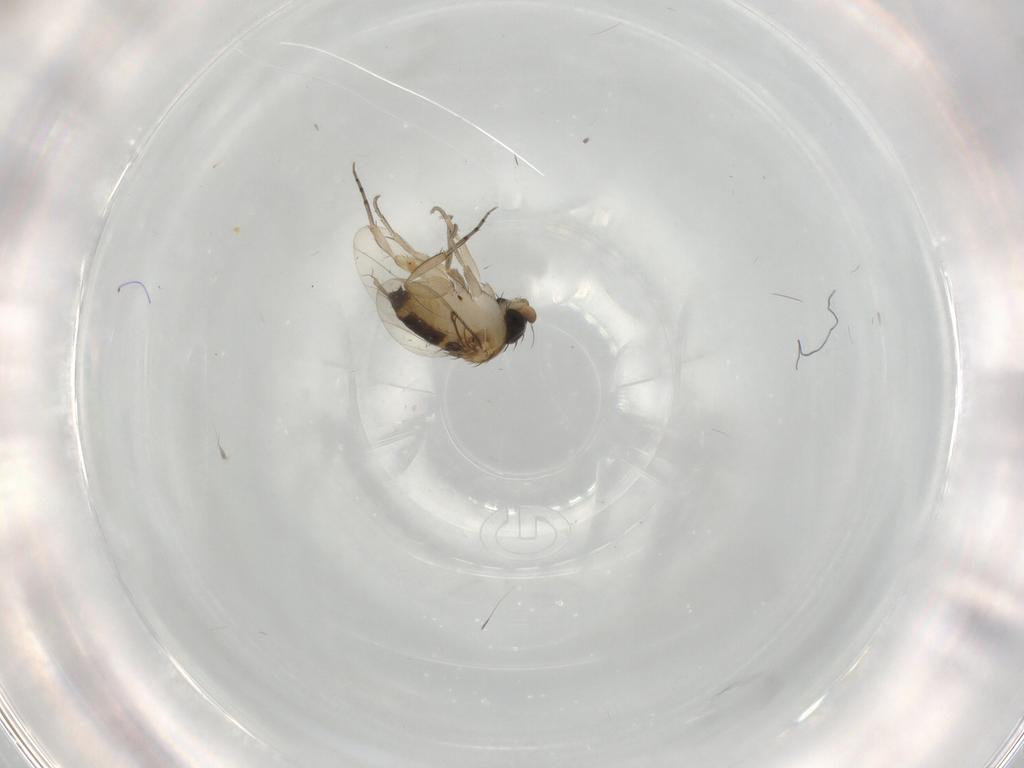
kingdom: Animalia
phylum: Arthropoda
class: Insecta
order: Diptera
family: Phoridae
